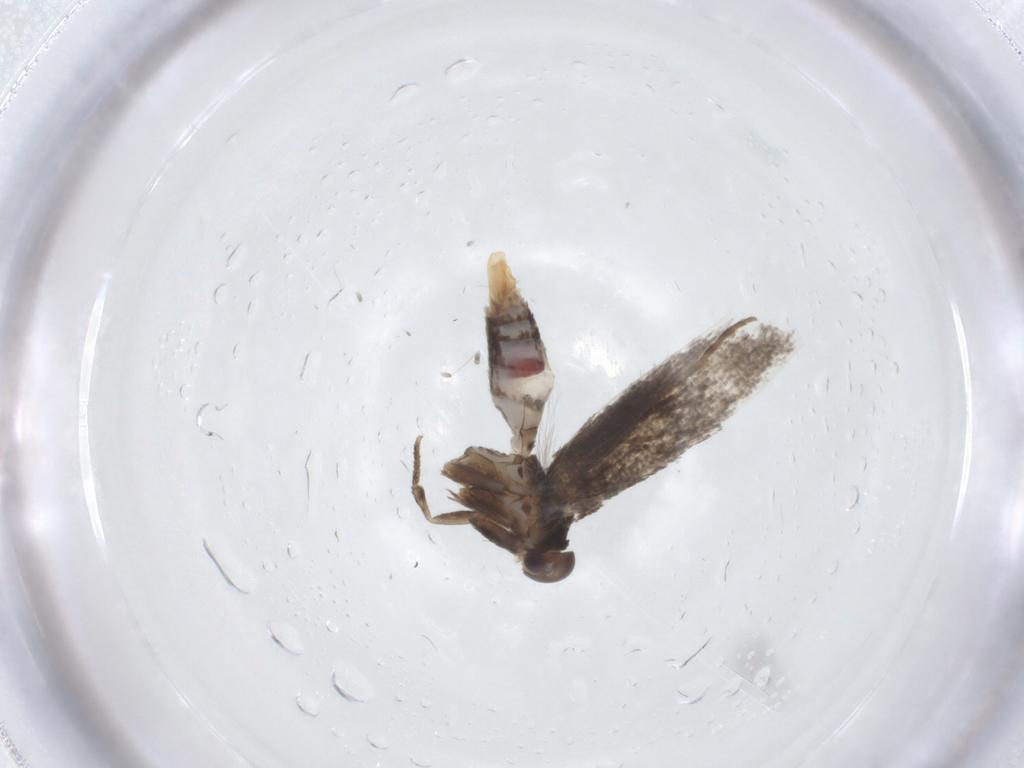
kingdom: Animalia
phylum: Arthropoda
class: Insecta
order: Lepidoptera
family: Elachistidae
